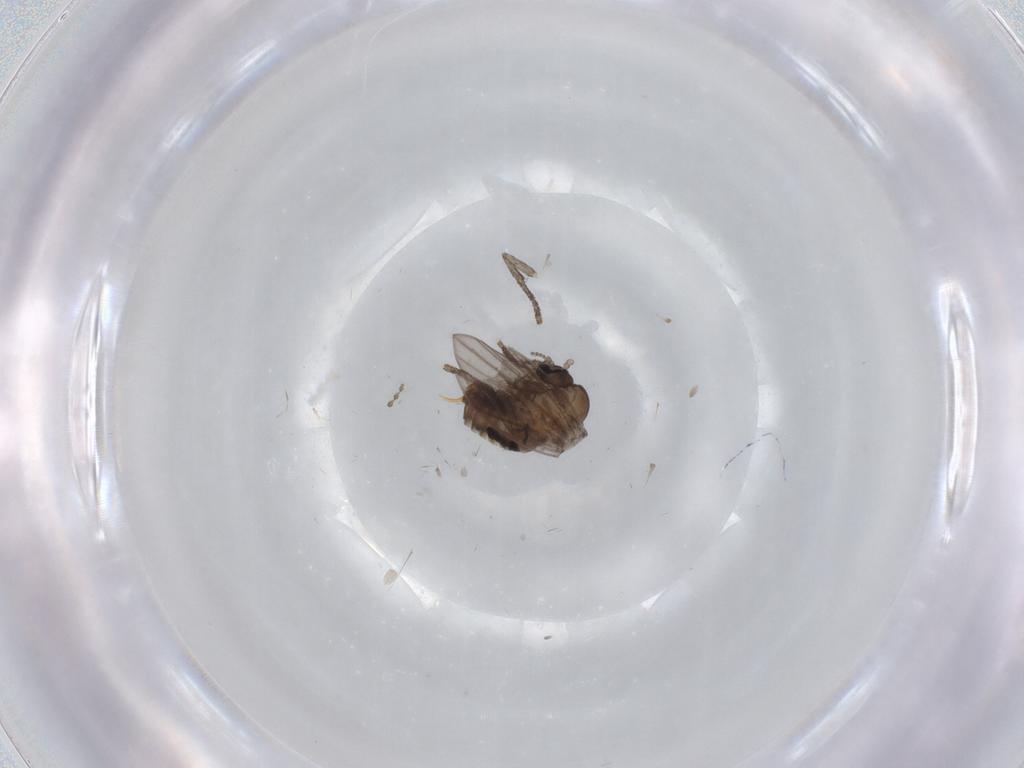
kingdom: Animalia
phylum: Arthropoda
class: Insecta
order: Diptera
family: Psychodidae
